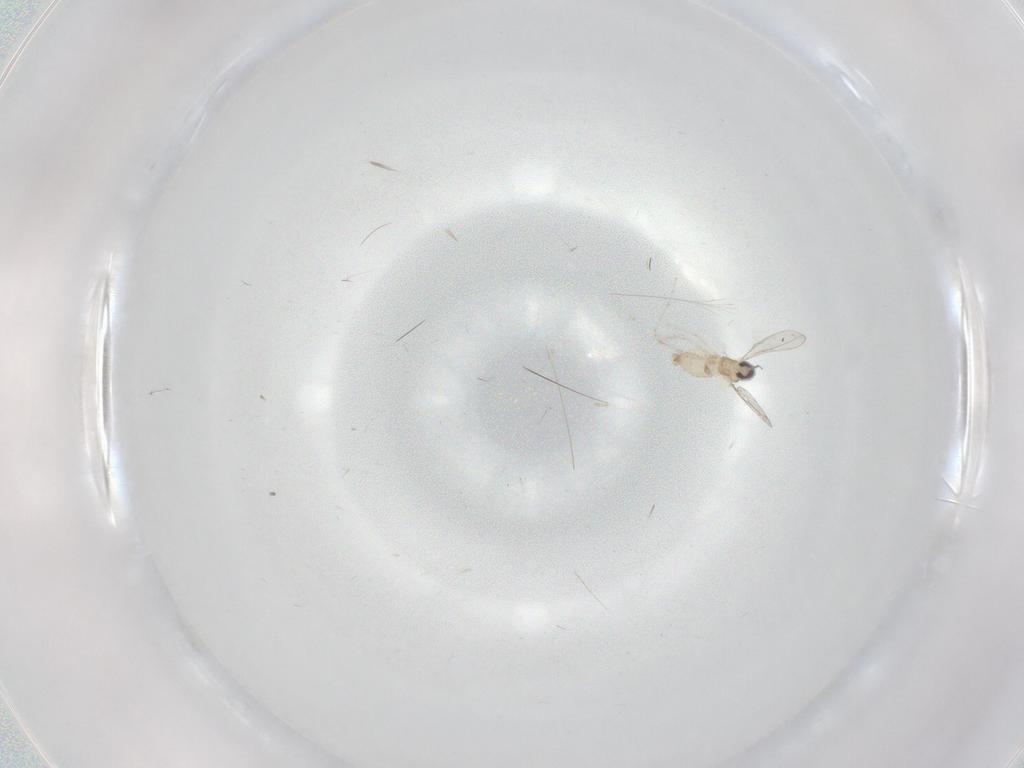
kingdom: Animalia
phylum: Arthropoda
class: Insecta
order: Diptera
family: Cecidomyiidae
